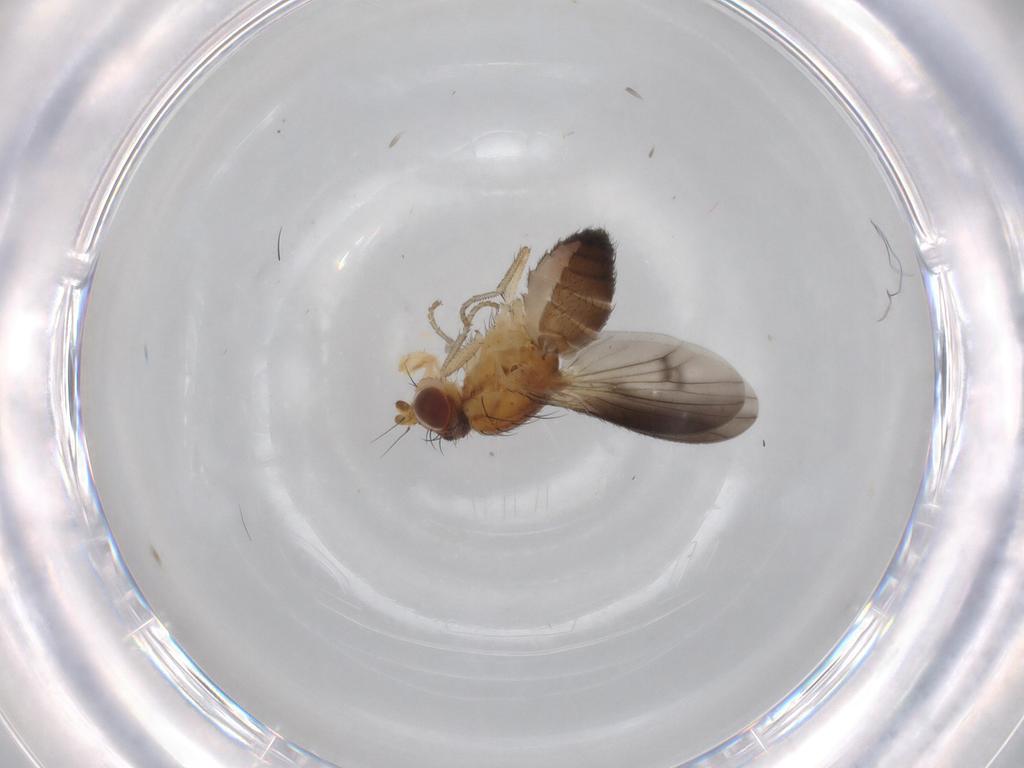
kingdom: Animalia
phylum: Arthropoda
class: Insecta
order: Diptera
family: Heleomyzidae
